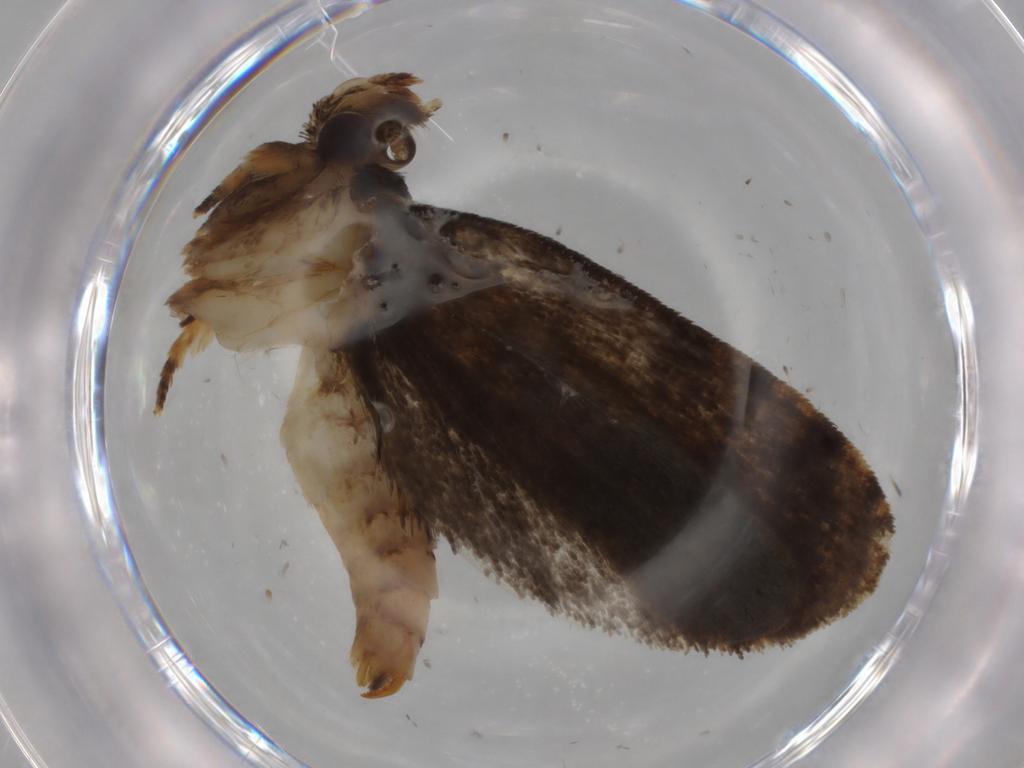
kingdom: Animalia
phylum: Arthropoda
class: Insecta
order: Lepidoptera
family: Tineidae
